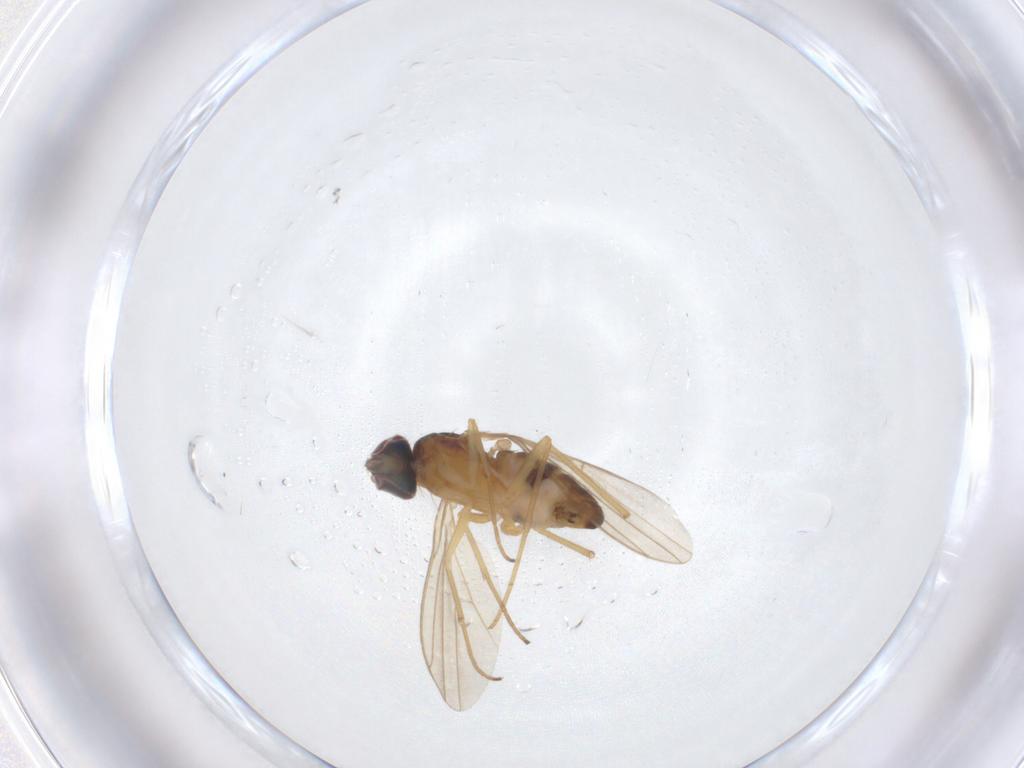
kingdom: Animalia
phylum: Arthropoda
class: Insecta
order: Diptera
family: Dolichopodidae
